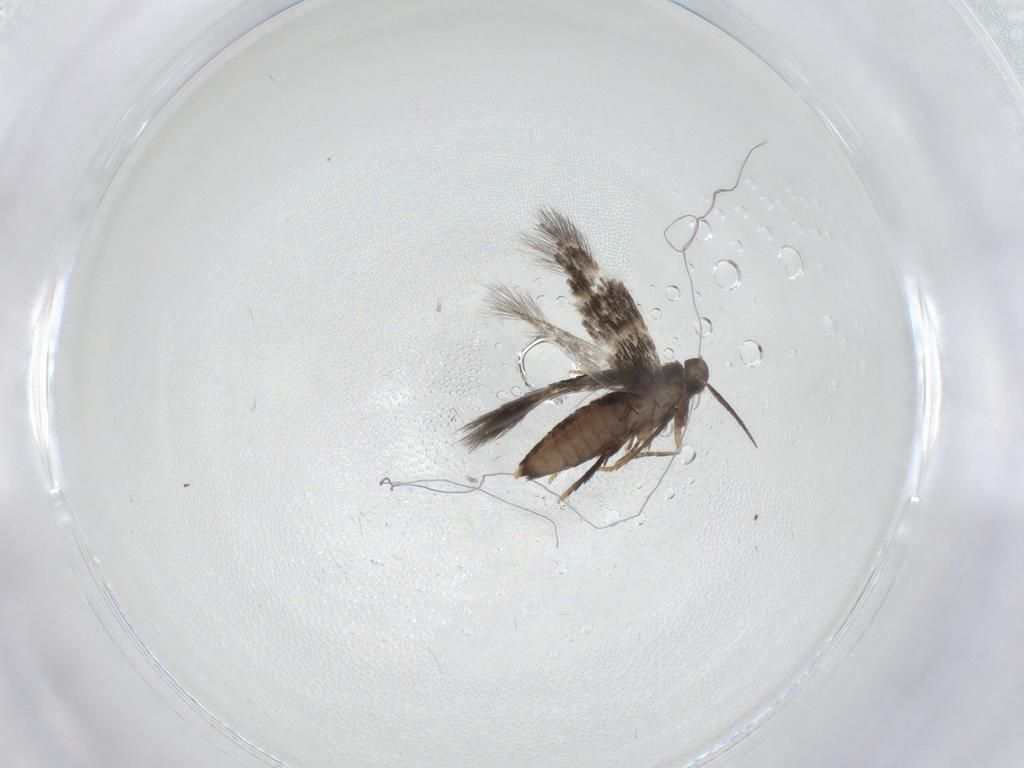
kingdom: Animalia
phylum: Arthropoda
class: Insecta
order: Lepidoptera
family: Heliozelidae
